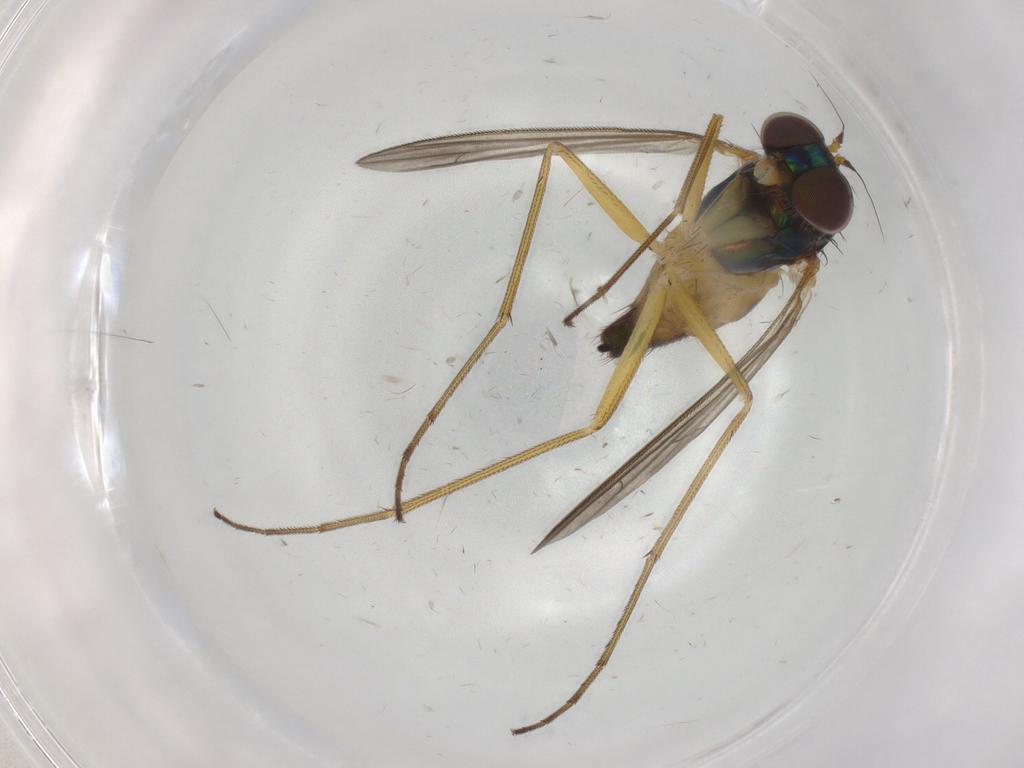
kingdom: Animalia
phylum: Arthropoda
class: Insecta
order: Diptera
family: Dolichopodidae
